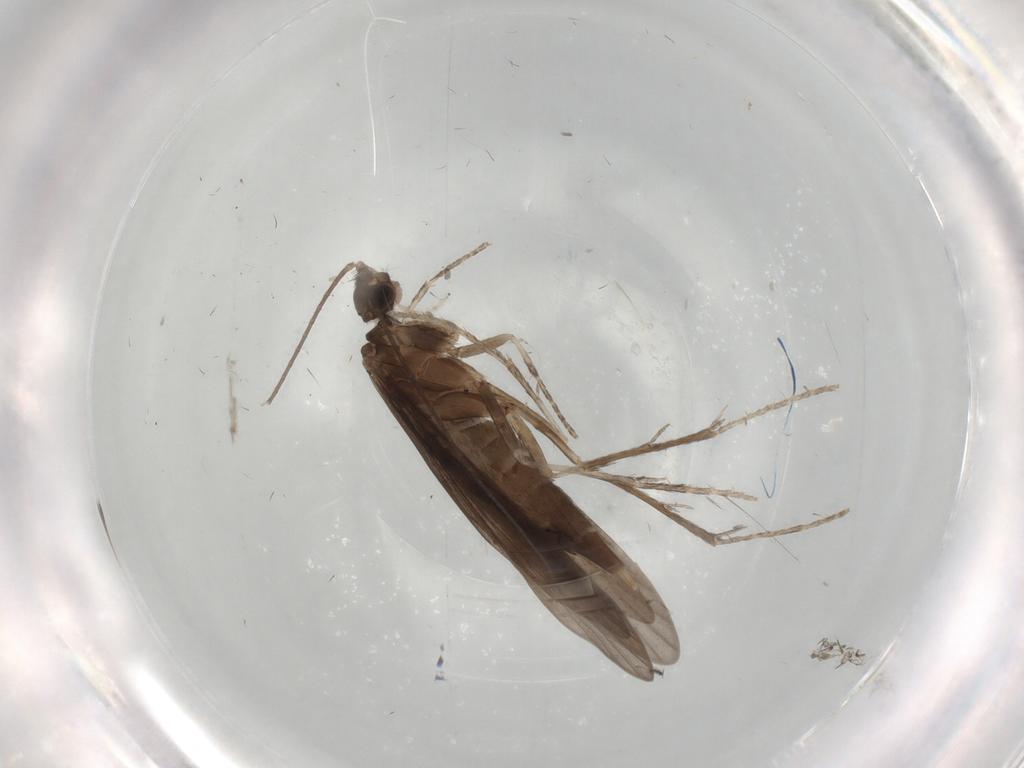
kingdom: Animalia
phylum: Arthropoda
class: Insecta
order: Trichoptera
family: Xiphocentronidae
